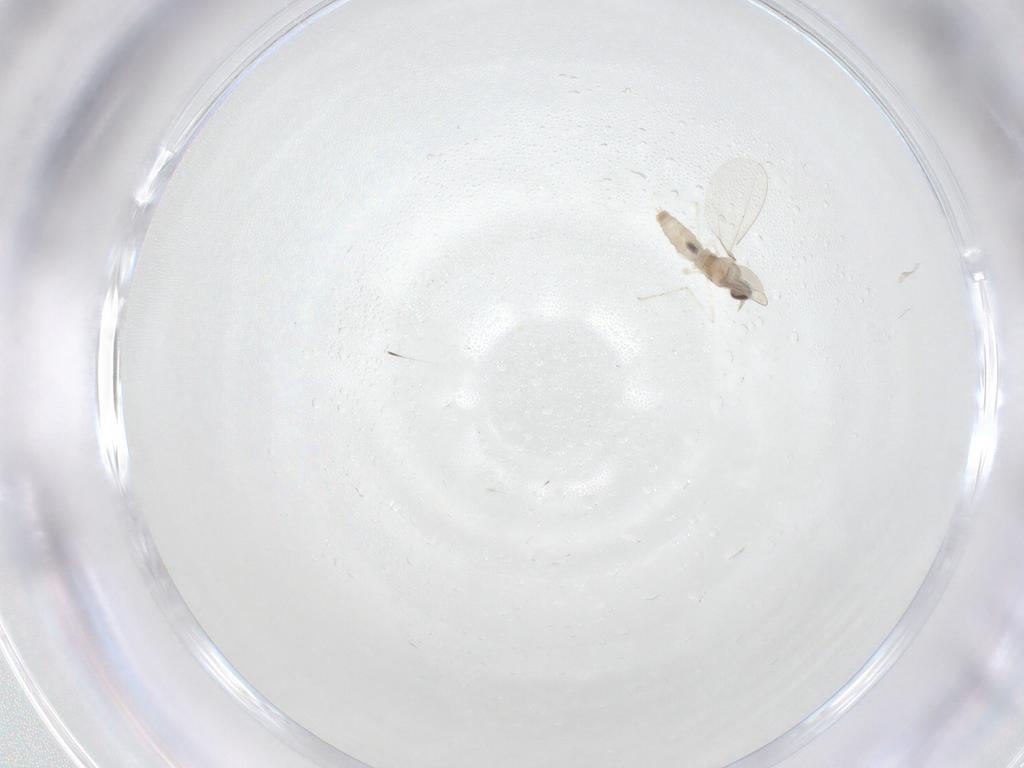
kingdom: Animalia
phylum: Arthropoda
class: Insecta
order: Diptera
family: Cecidomyiidae
